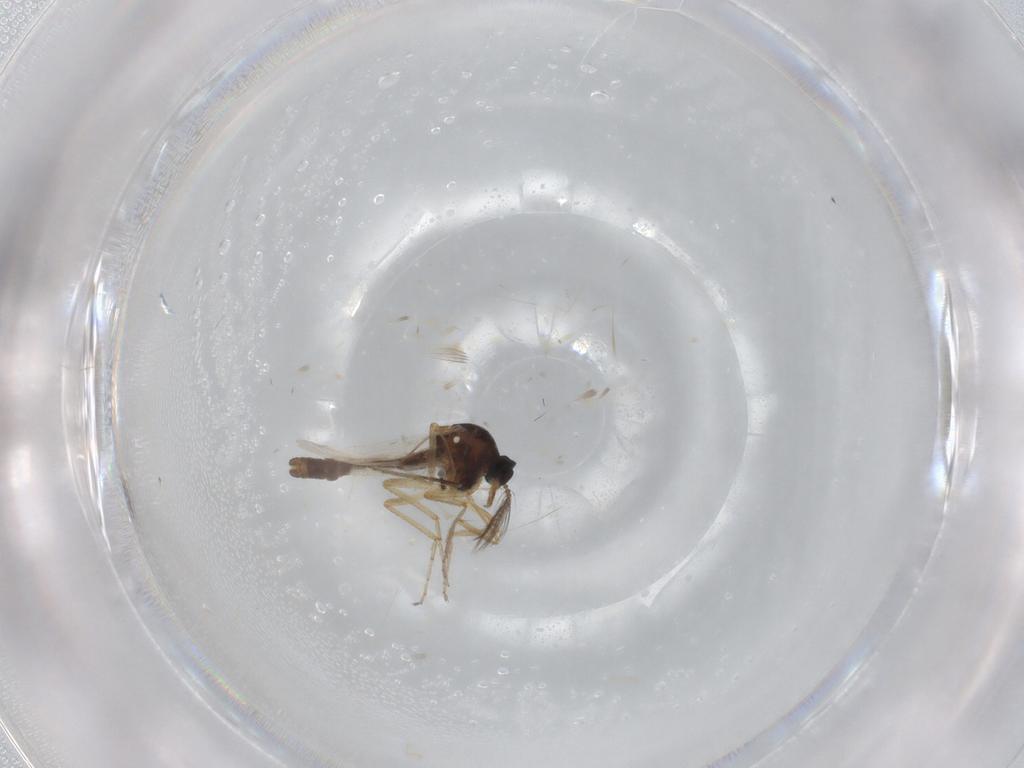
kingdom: Animalia
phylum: Arthropoda
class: Insecta
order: Diptera
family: Ceratopogonidae
